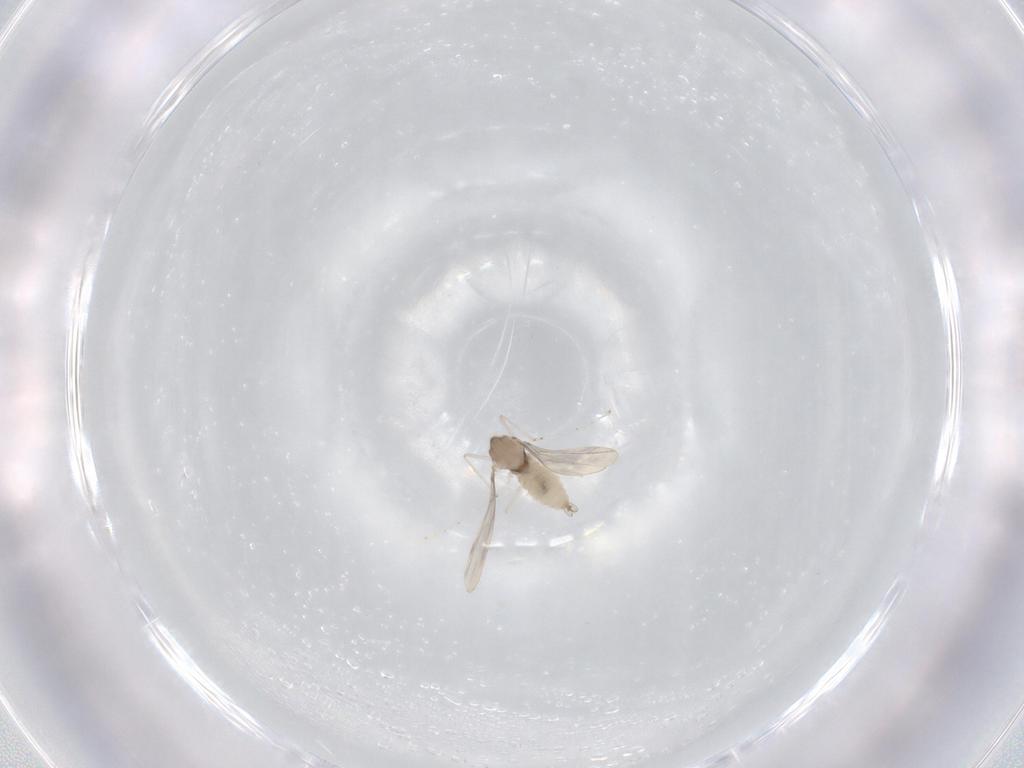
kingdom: Animalia
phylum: Arthropoda
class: Insecta
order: Diptera
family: Cecidomyiidae
